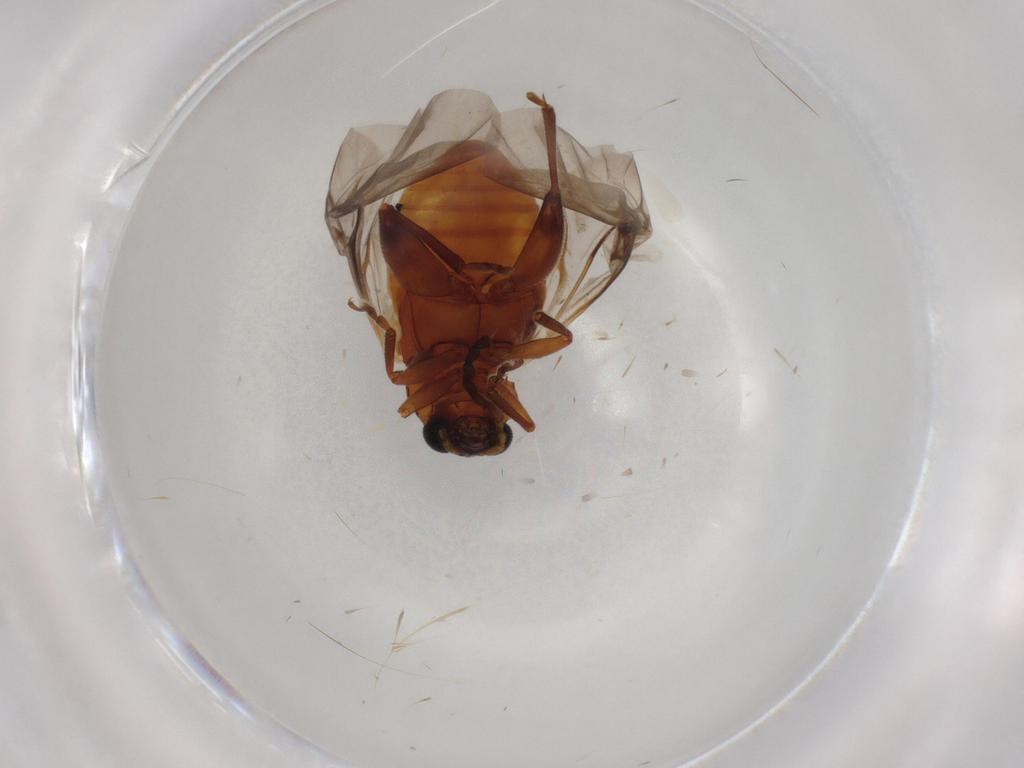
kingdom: Animalia
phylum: Arthropoda
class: Insecta
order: Coleoptera
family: Chrysomelidae
